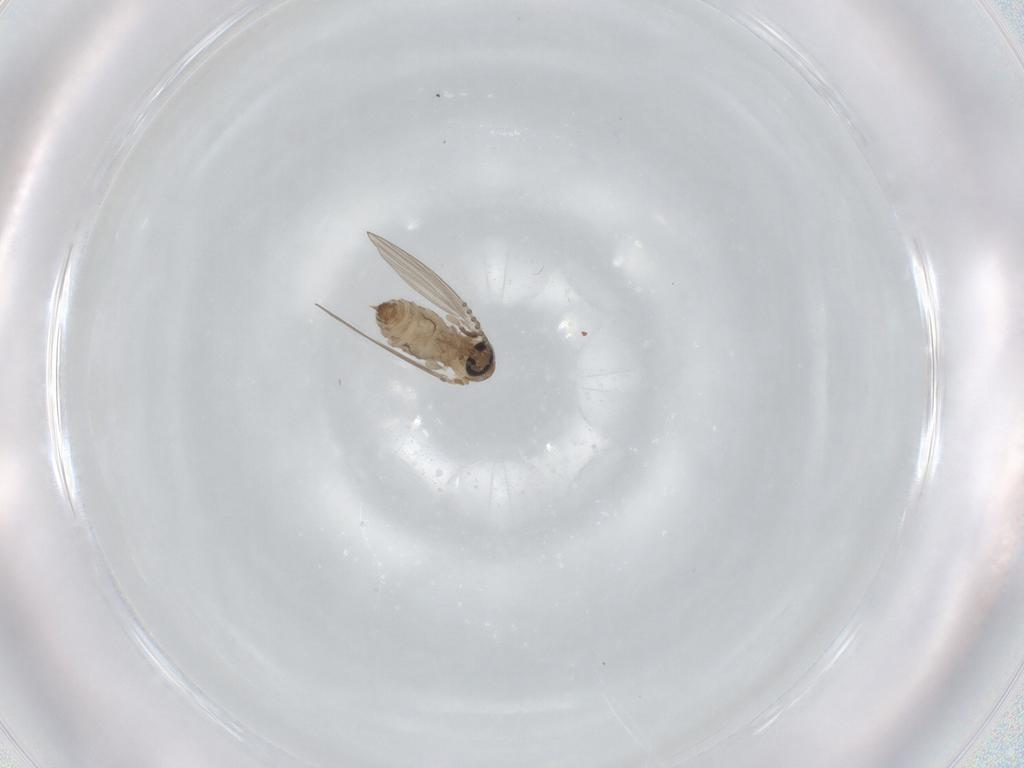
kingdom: Animalia
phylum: Arthropoda
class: Insecta
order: Diptera
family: Psychodidae
